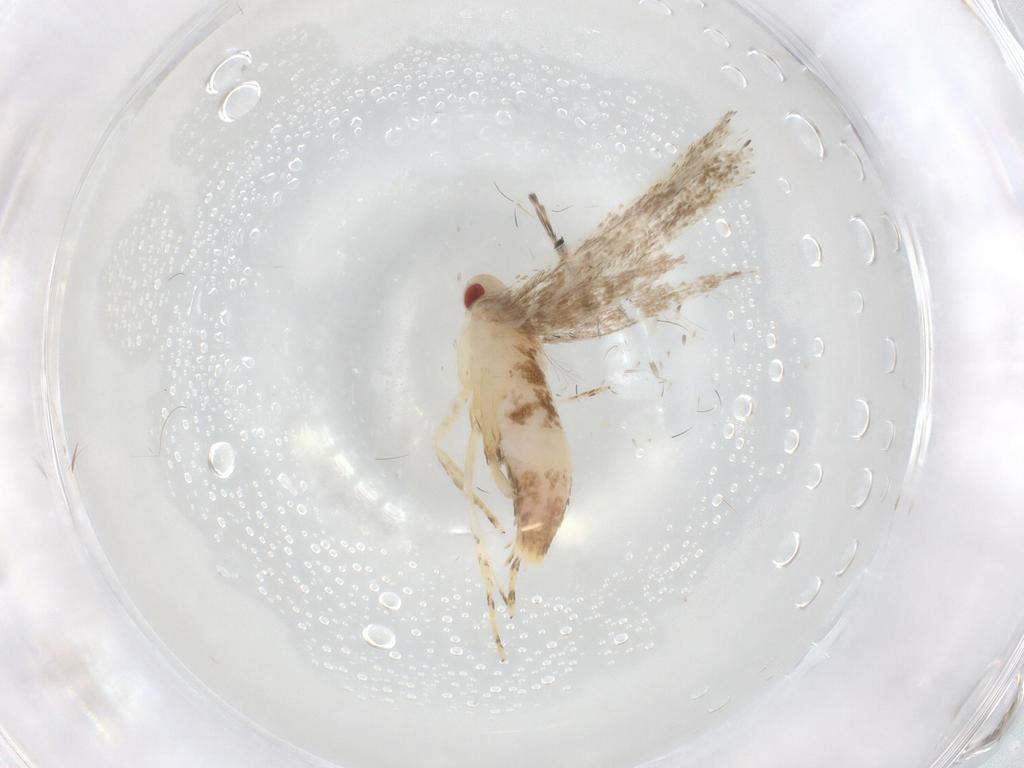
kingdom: Animalia
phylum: Arthropoda
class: Insecta
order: Lepidoptera
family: Erebidae
